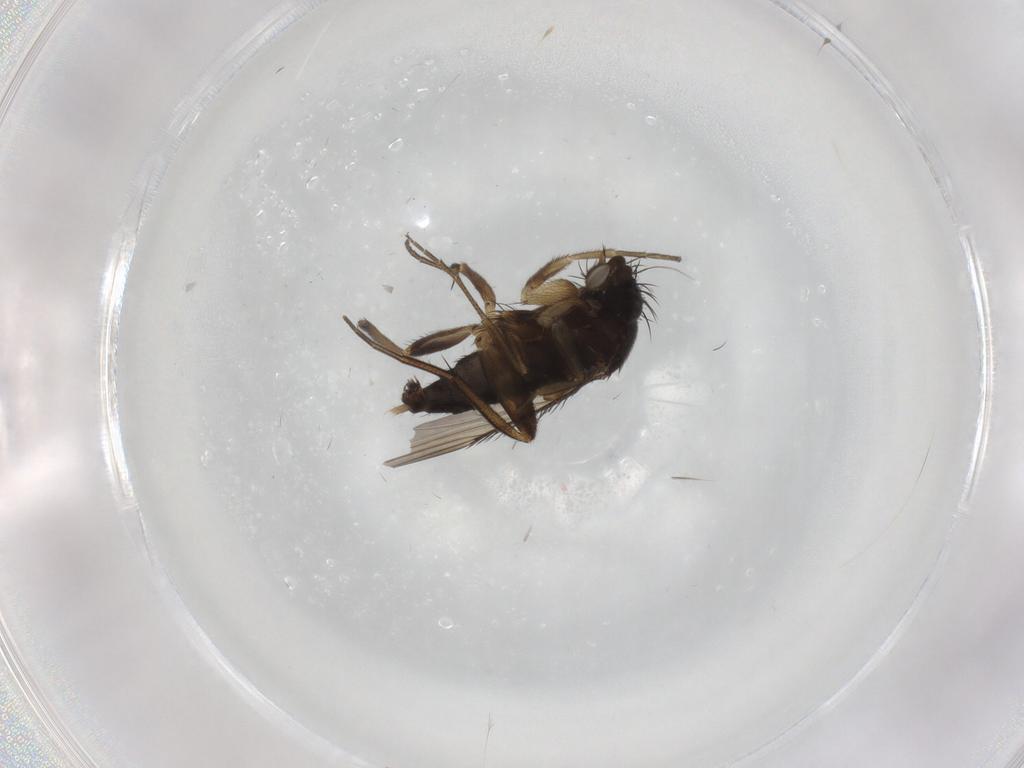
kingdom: Animalia
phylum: Arthropoda
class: Insecta
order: Diptera
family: Phoridae
